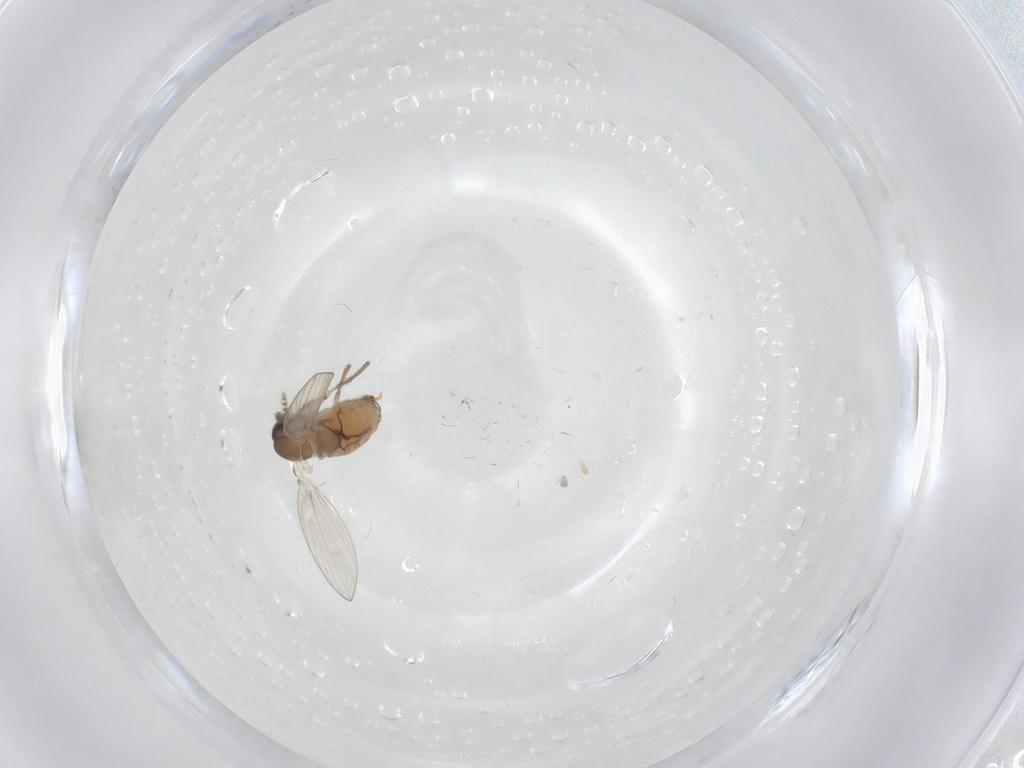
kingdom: Animalia
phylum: Arthropoda
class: Insecta
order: Diptera
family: Psychodidae
